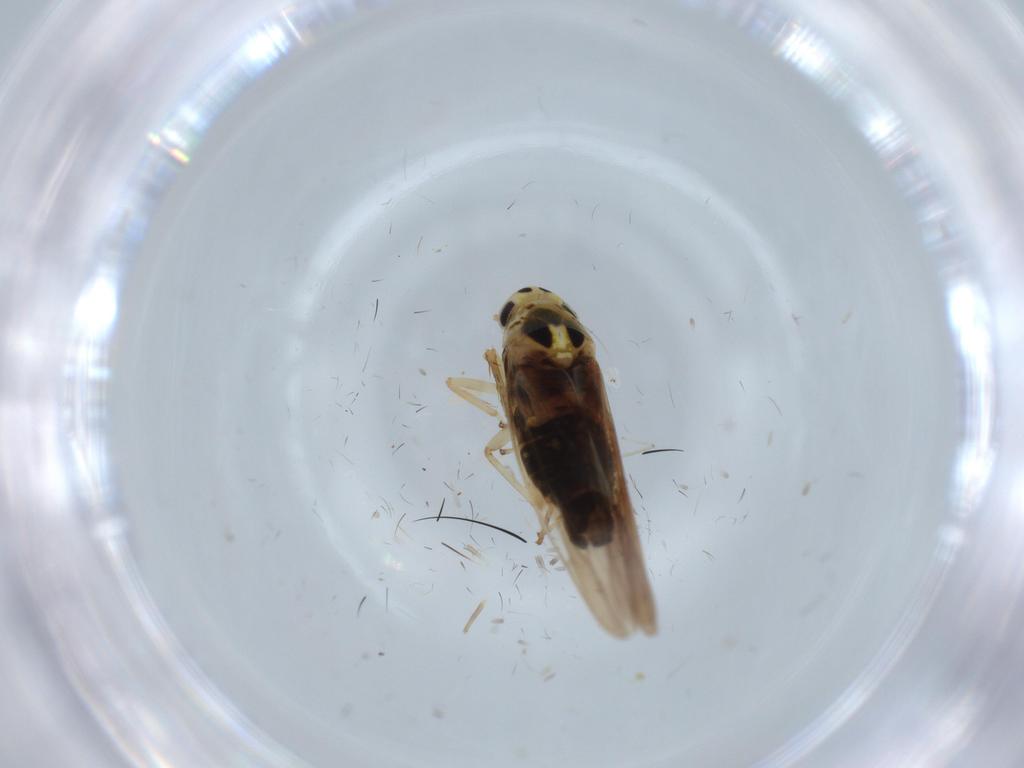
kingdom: Animalia
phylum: Arthropoda
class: Insecta
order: Hemiptera
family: Cercopidae
